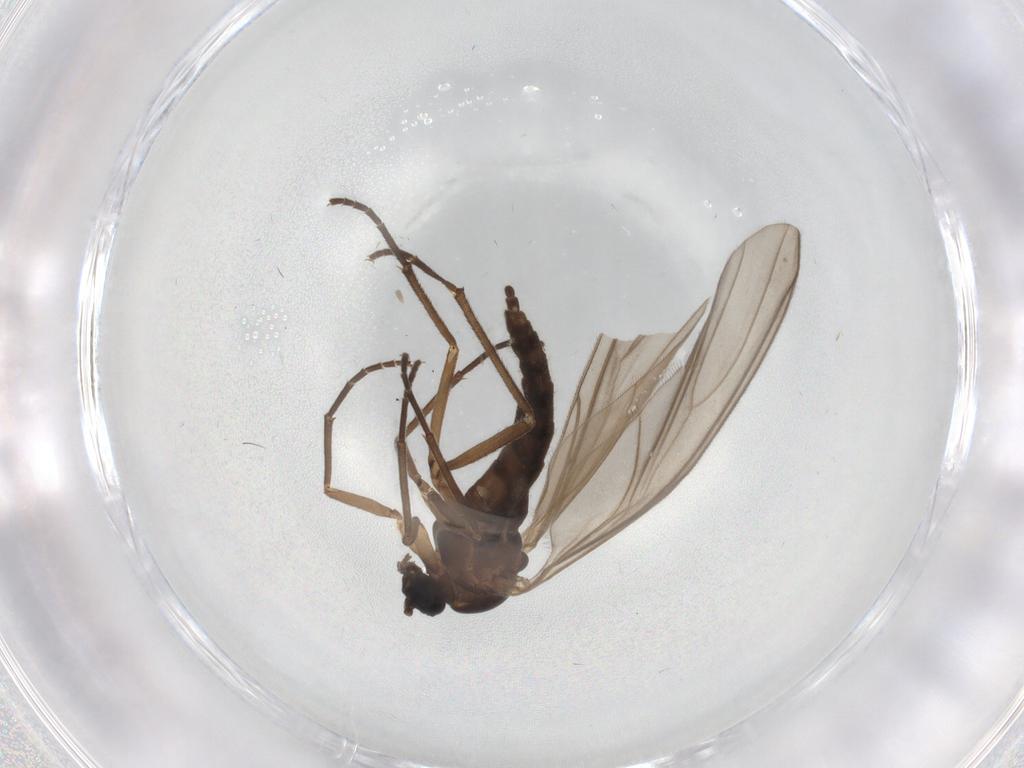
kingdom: Animalia
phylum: Arthropoda
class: Insecta
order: Diptera
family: Sciaridae
